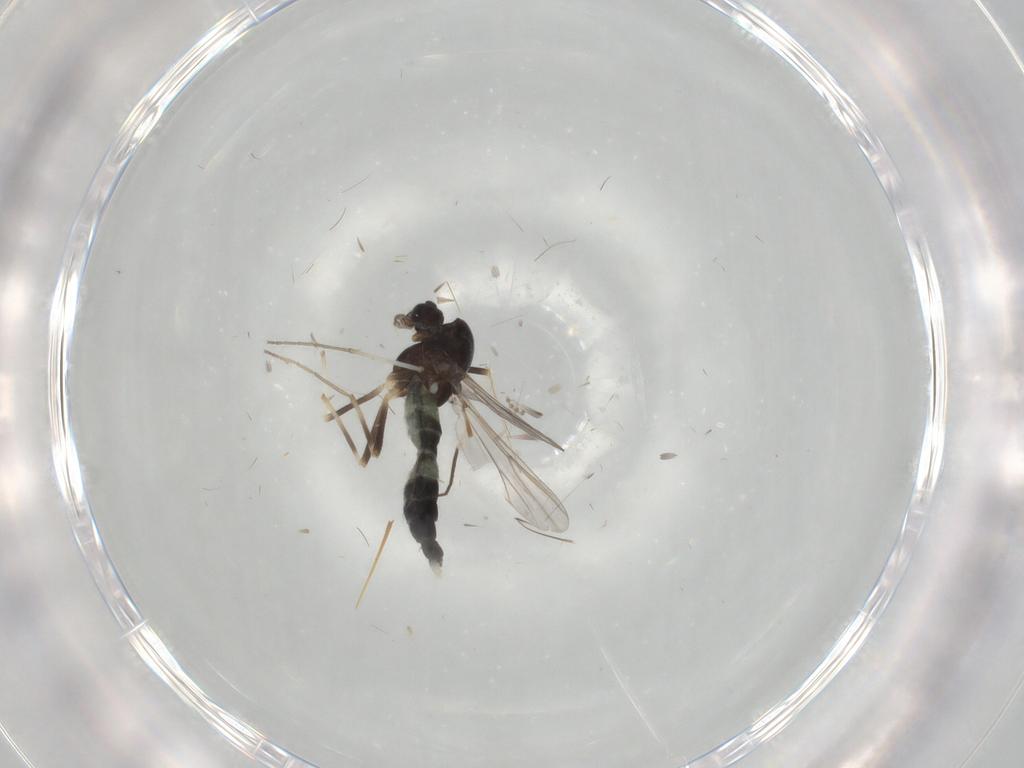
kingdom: Animalia
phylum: Arthropoda
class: Insecta
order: Diptera
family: Chironomidae
